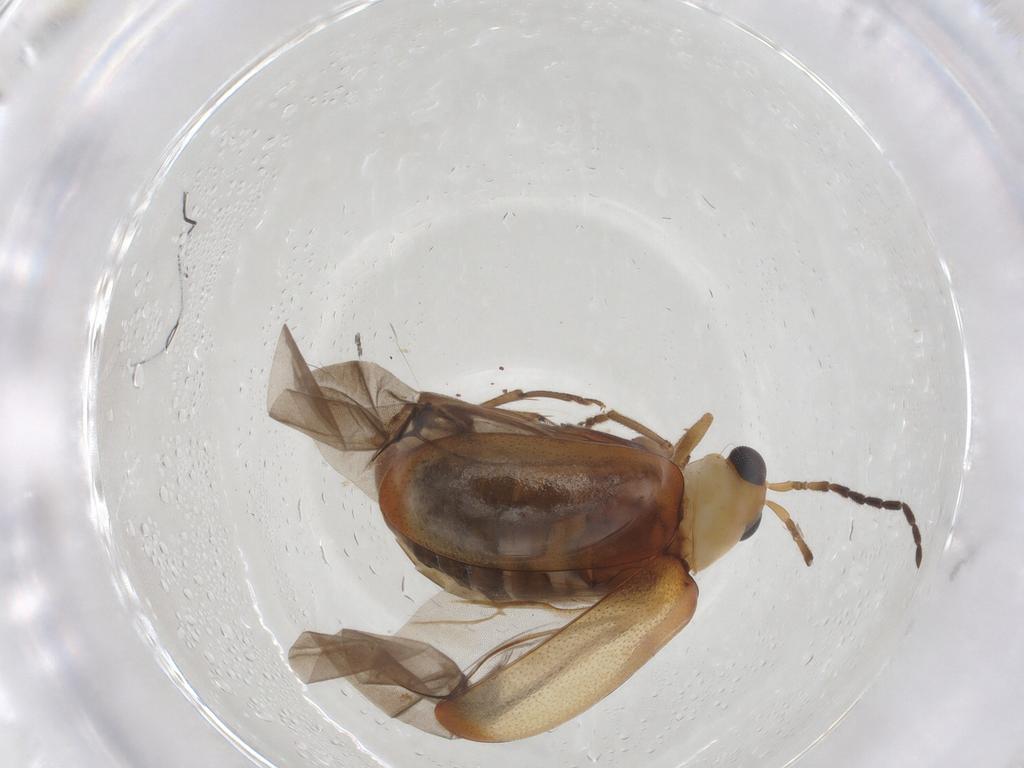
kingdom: Animalia
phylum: Arthropoda
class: Insecta
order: Coleoptera
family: Chrysomelidae
